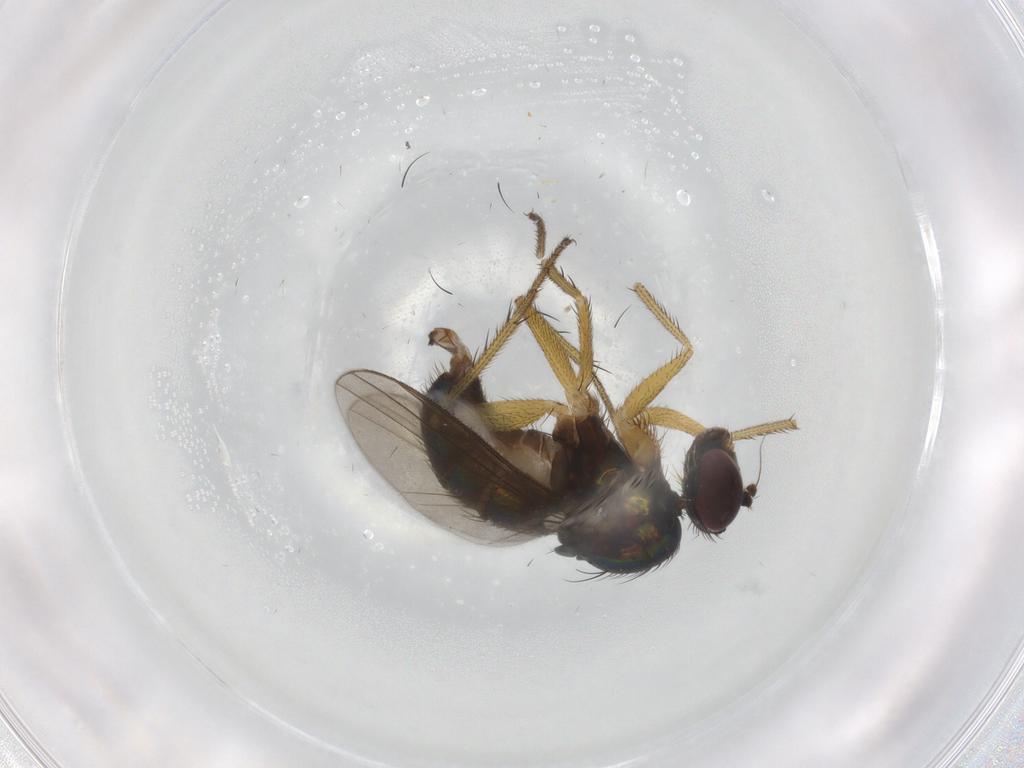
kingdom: Animalia
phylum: Arthropoda
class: Insecta
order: Diptera
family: Dolichopodidae
